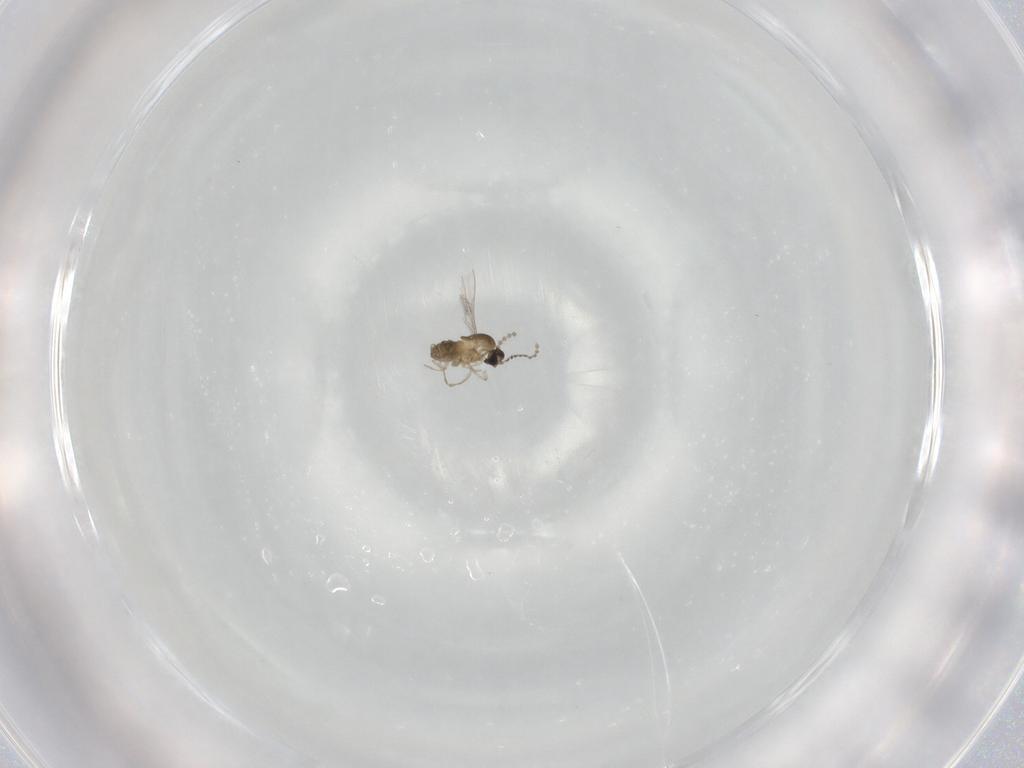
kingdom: Animalia
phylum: Arthropoda
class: Insecta
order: Diptera
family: Cecidomyiidae
